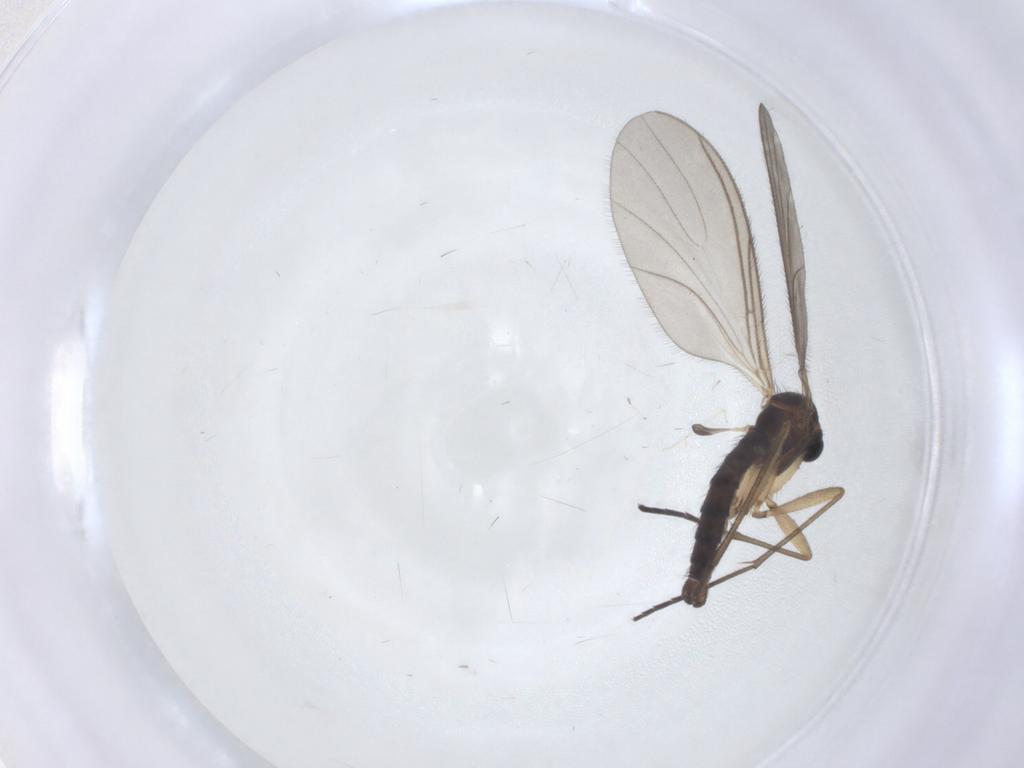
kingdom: Animalia
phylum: Arthropoda
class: Insecta
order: Diptera
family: Sciaridae
